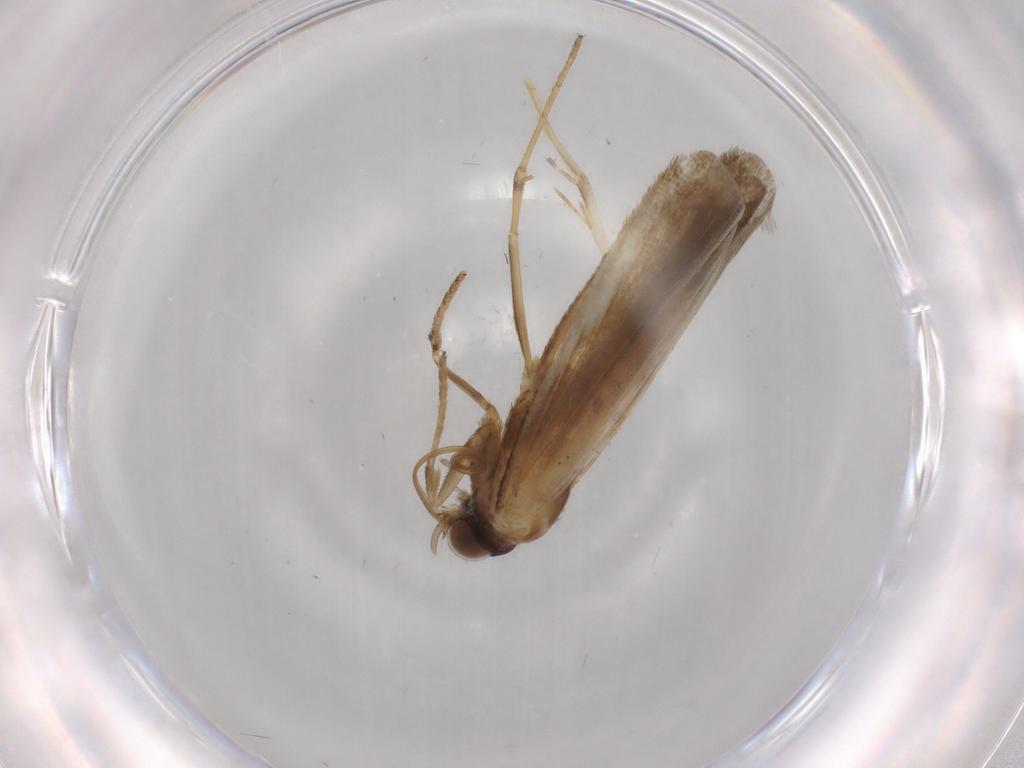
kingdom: Animalia
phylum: Arthropoda
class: Insecta
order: Lepidoptera
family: Noctuidae
